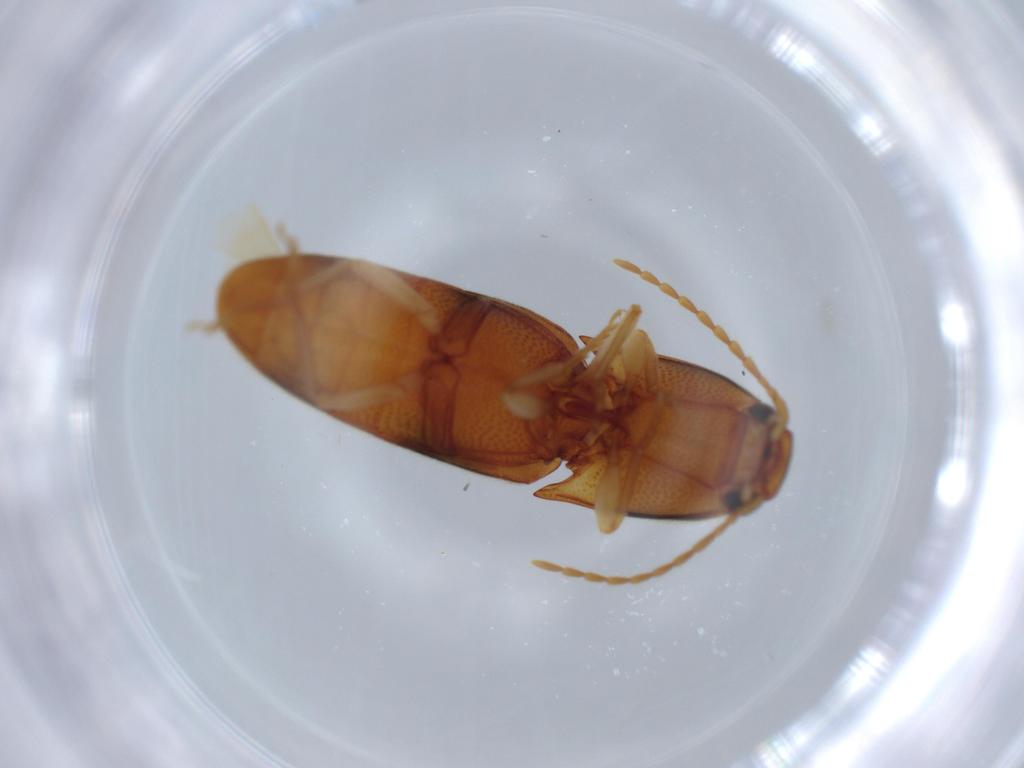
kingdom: Animalia
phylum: Arthropoda
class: Insecta
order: Coleoptera
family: Elateridae
